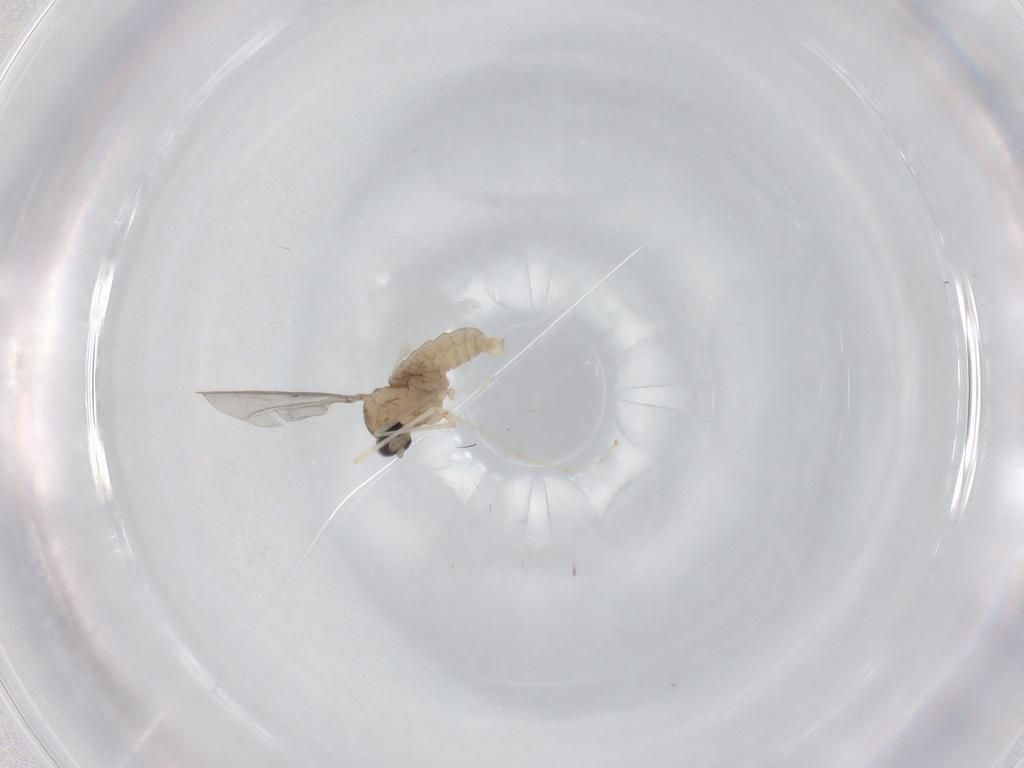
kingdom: Animalia
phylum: Arthropoda
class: Insecta
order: Diptera
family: Cecidomyiidae
